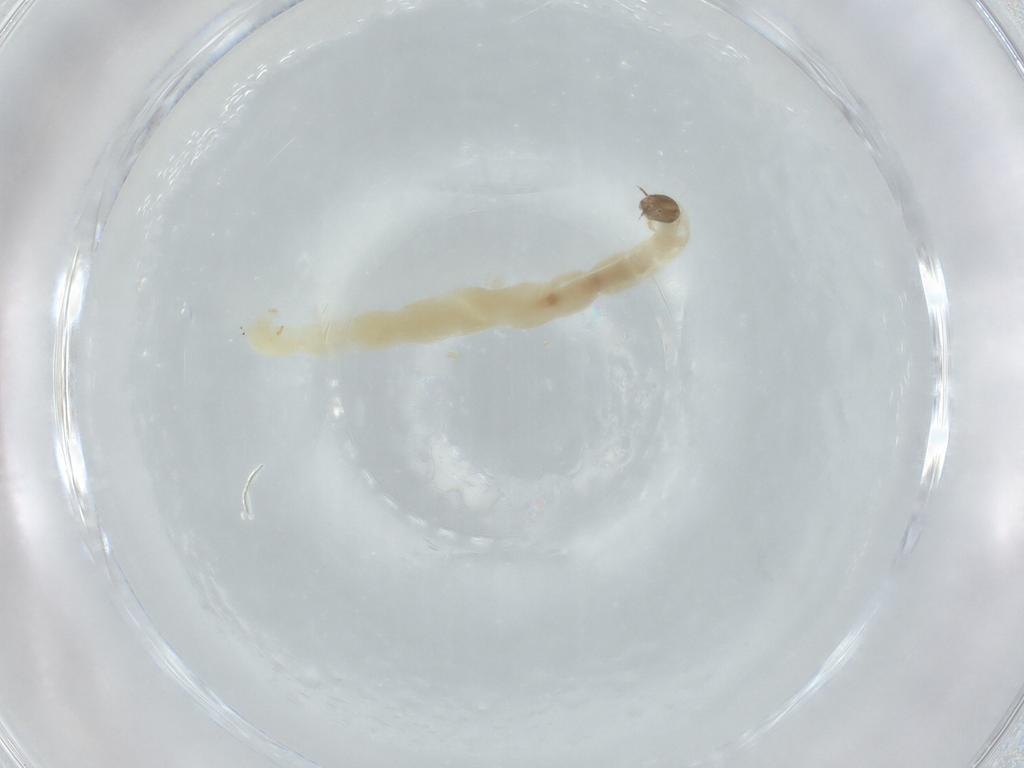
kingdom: Animalia
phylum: Arthropoda
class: Insecta
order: Diptera
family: Chironomidae
